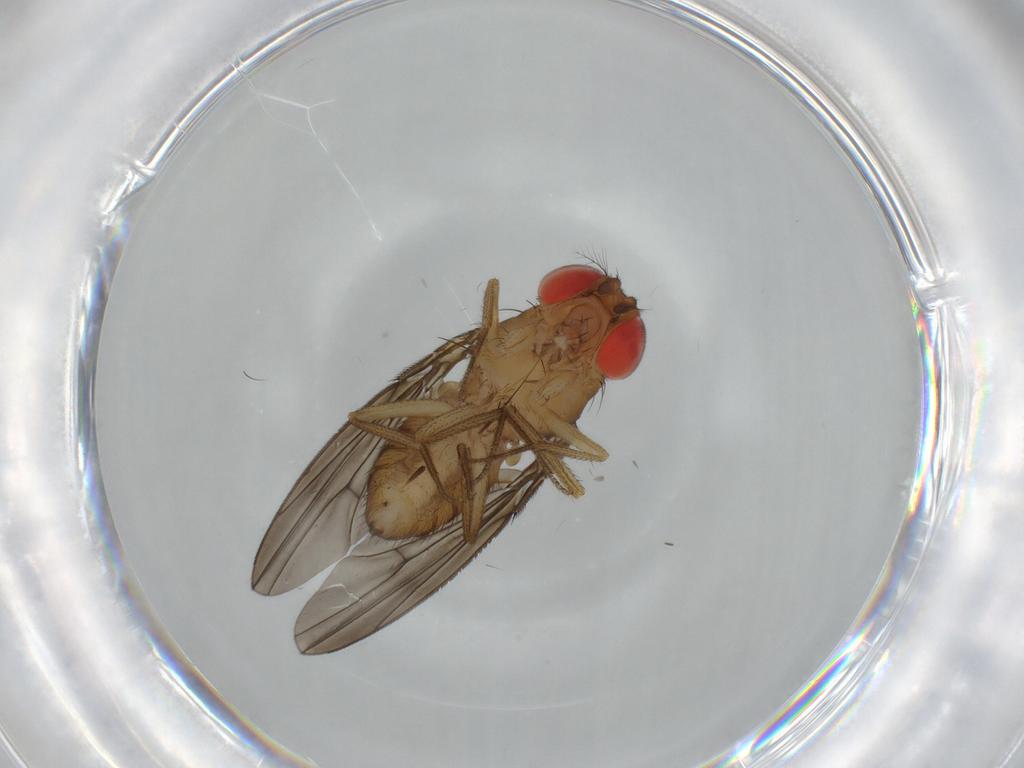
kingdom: Animalia
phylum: Arthropoda
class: Insecta
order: Diptera
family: Drosophilidae
